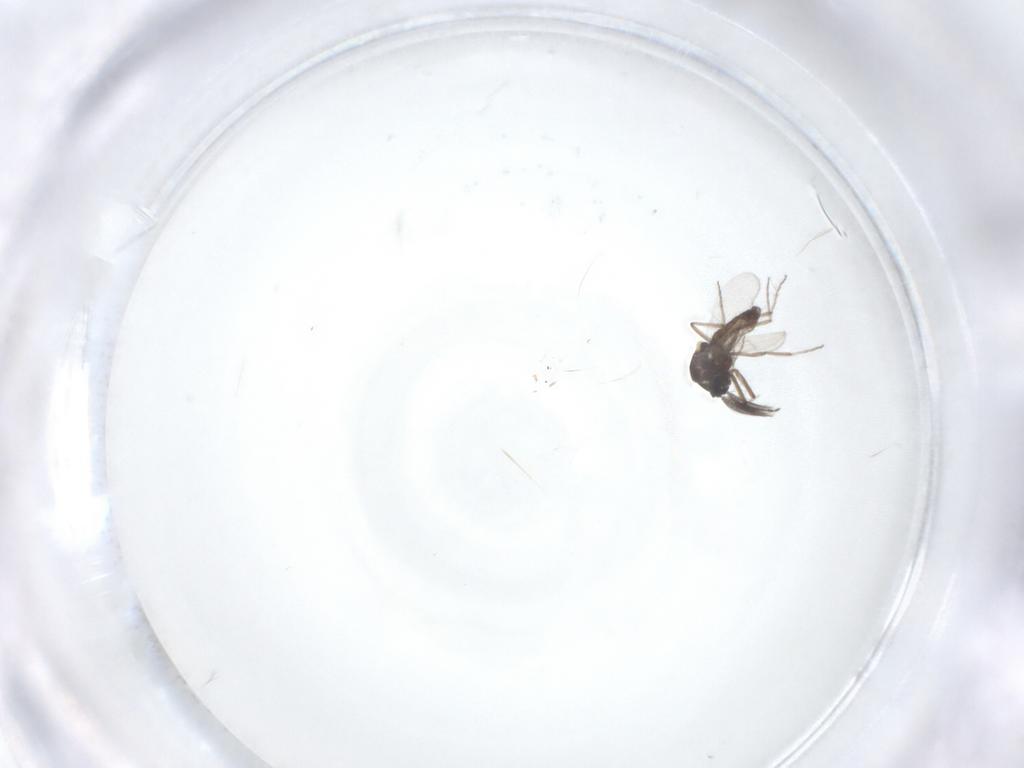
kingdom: Animalia
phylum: Arthropoda
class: Insecta
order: Diptera
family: Ceratopogonidae
